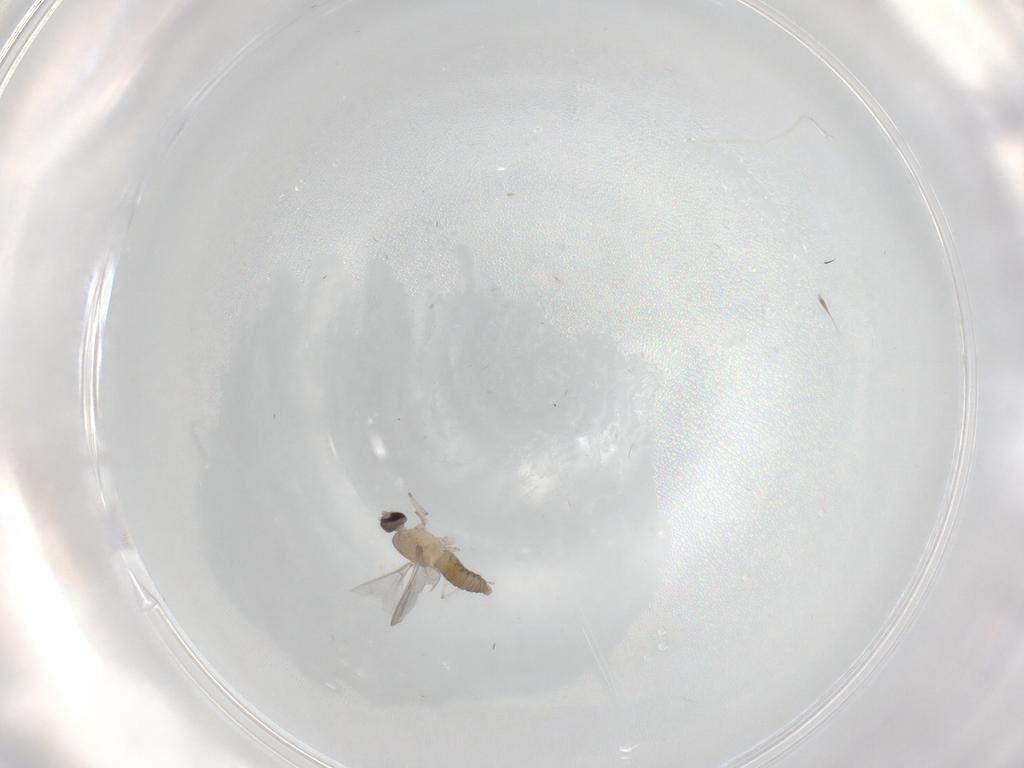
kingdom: Animalia
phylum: Arthropoda
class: Insecta
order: Diptera
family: Cecidomyiidae
